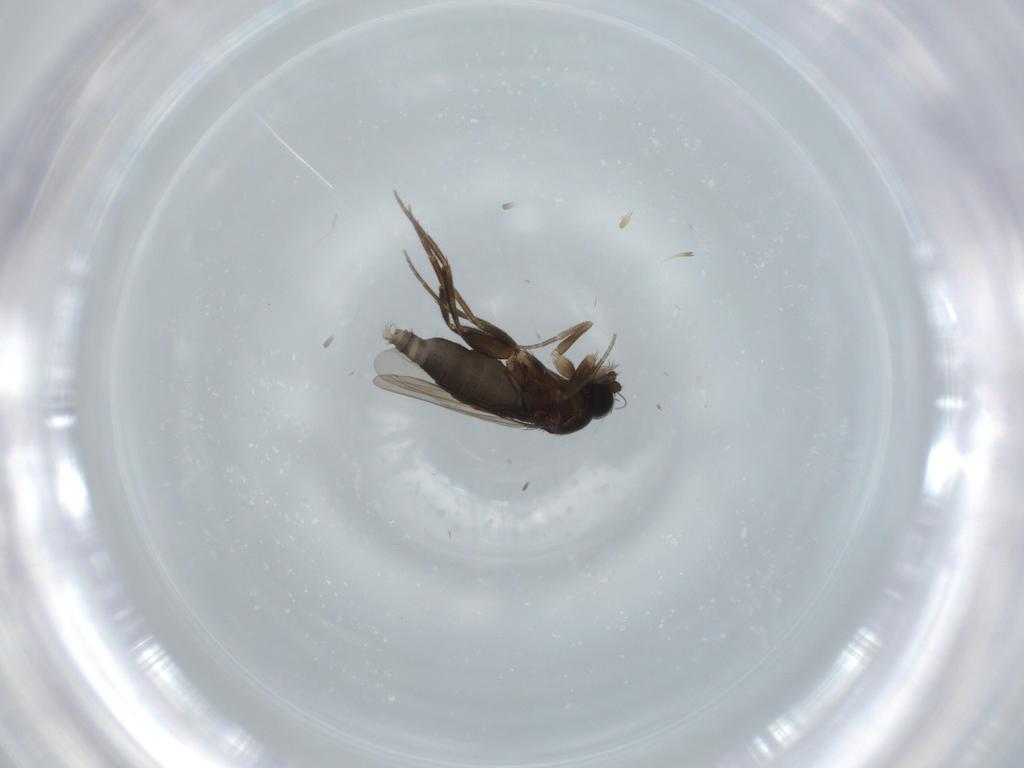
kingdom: Animalia
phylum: Arthropoda
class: Insecta
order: Diptera
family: Phoridae
